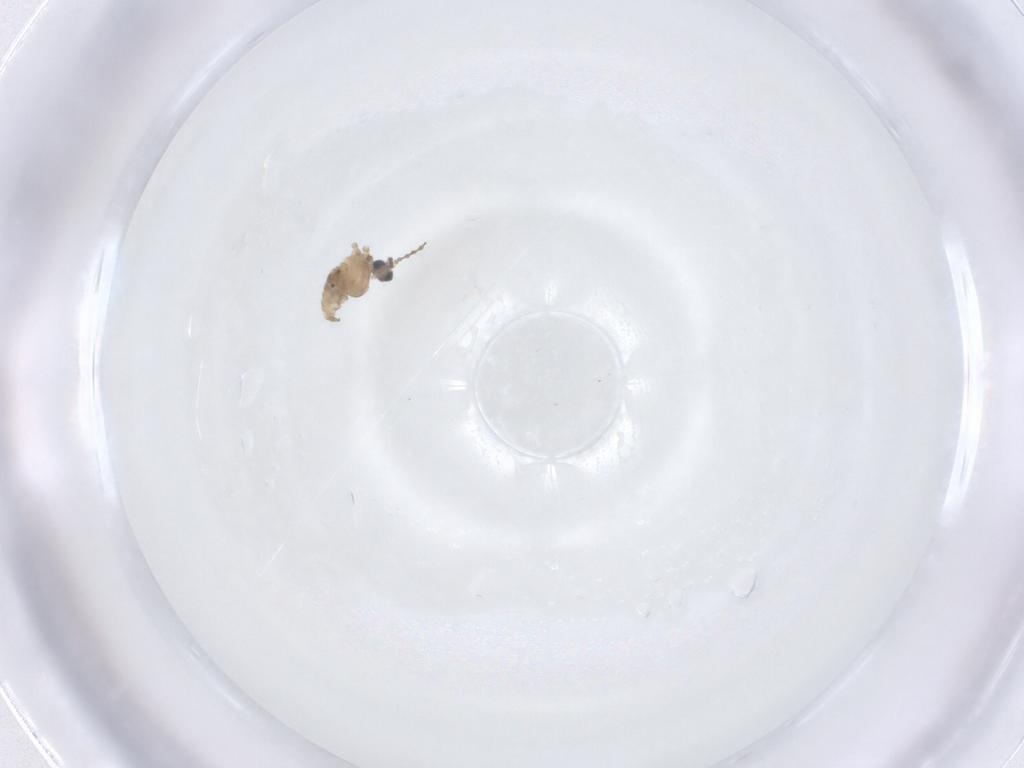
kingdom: Animalia
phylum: Arthropoda
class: Insecta
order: Diptera
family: Cecidomyiidae
